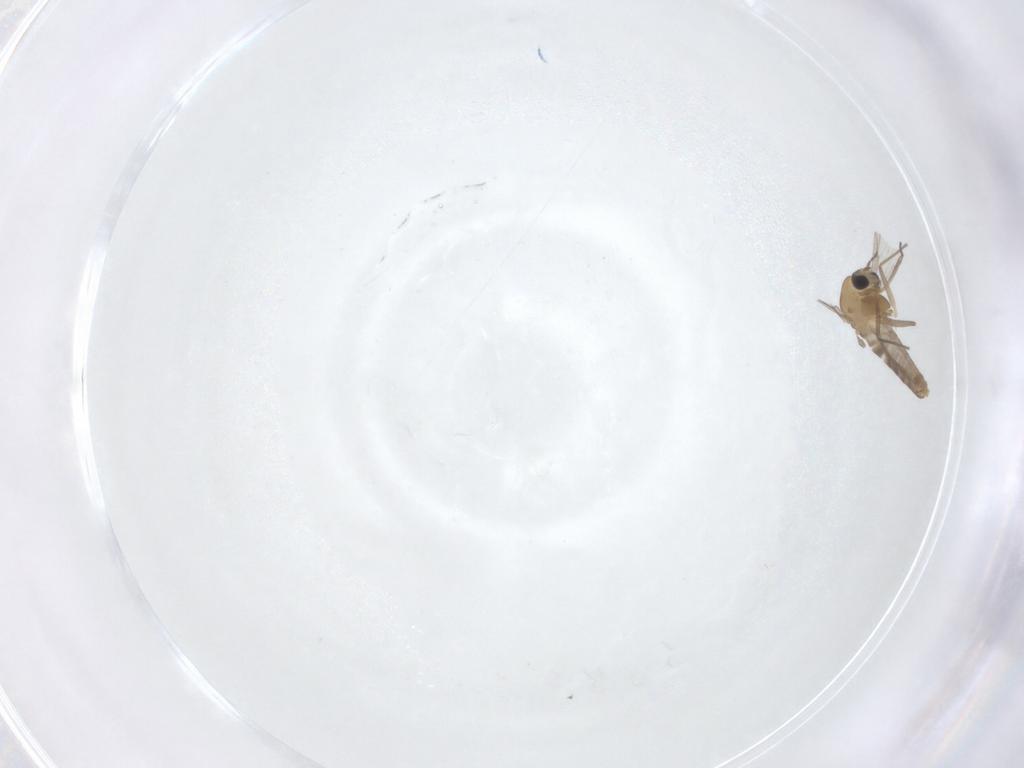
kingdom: Animalia
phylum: Arthropoda
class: Insecta
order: Diptera
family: Chironomidae
